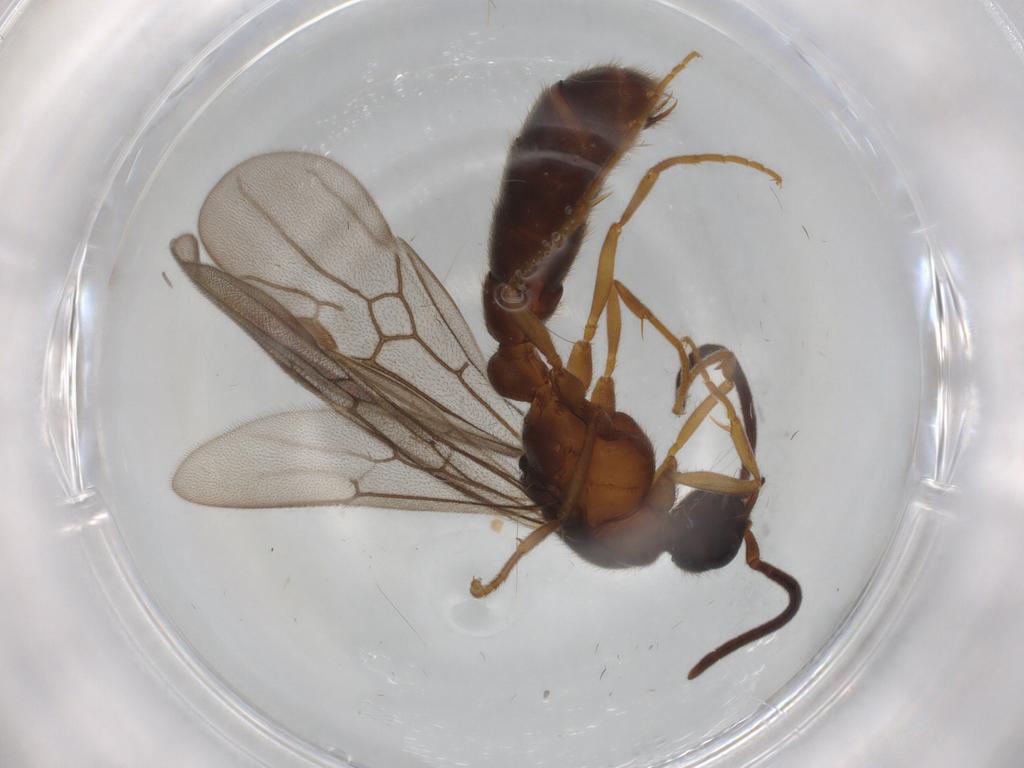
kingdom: Animalia
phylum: Arthropoda
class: Insecta
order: Hymenoptera
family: Formicidae
